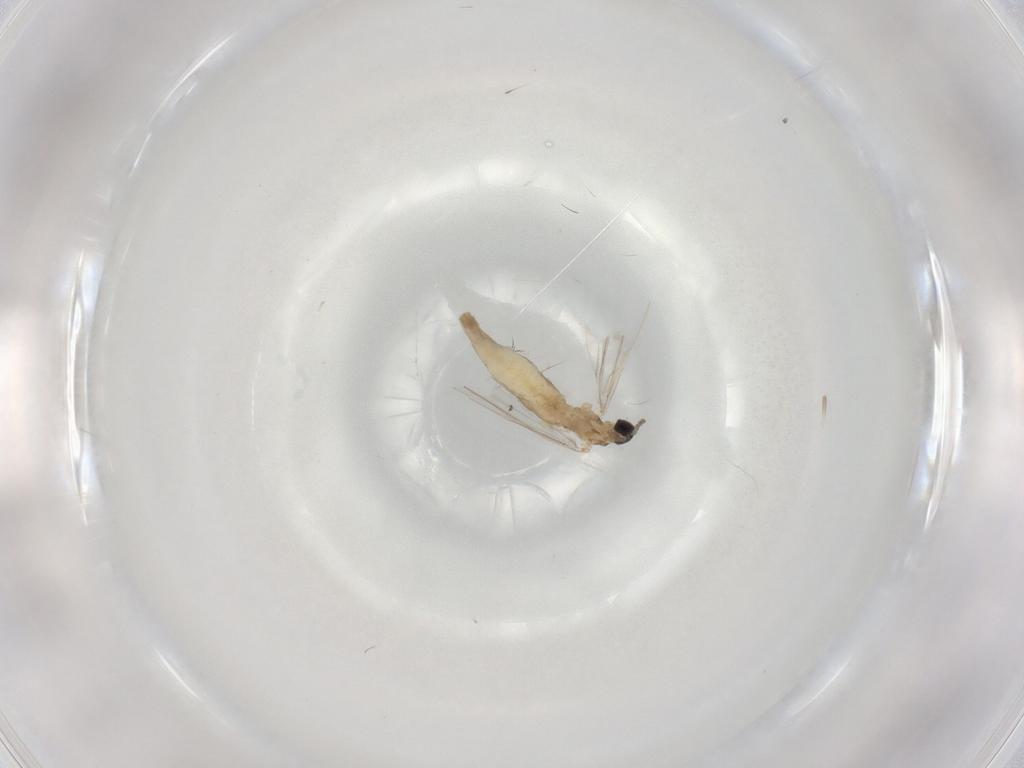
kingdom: Animalia
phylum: Arthropoda
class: Insecta
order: Diptera
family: Cecidomyiidae
